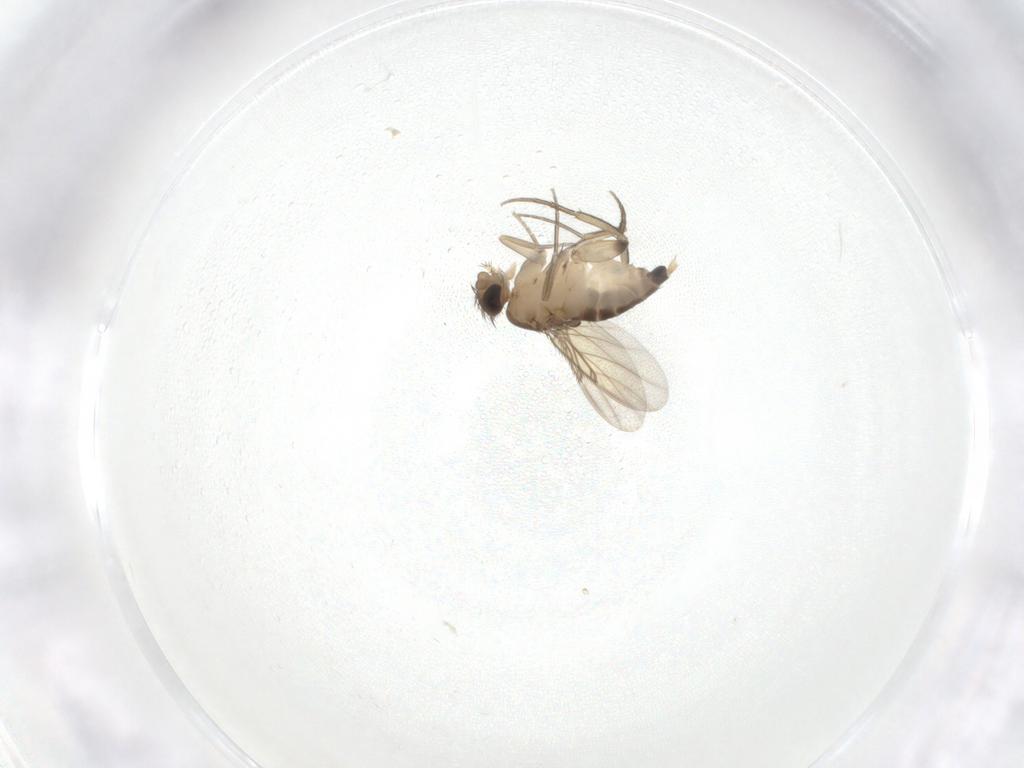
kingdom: Animalia
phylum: Arthropoda
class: Insecta
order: Diptera
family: Phoridae
